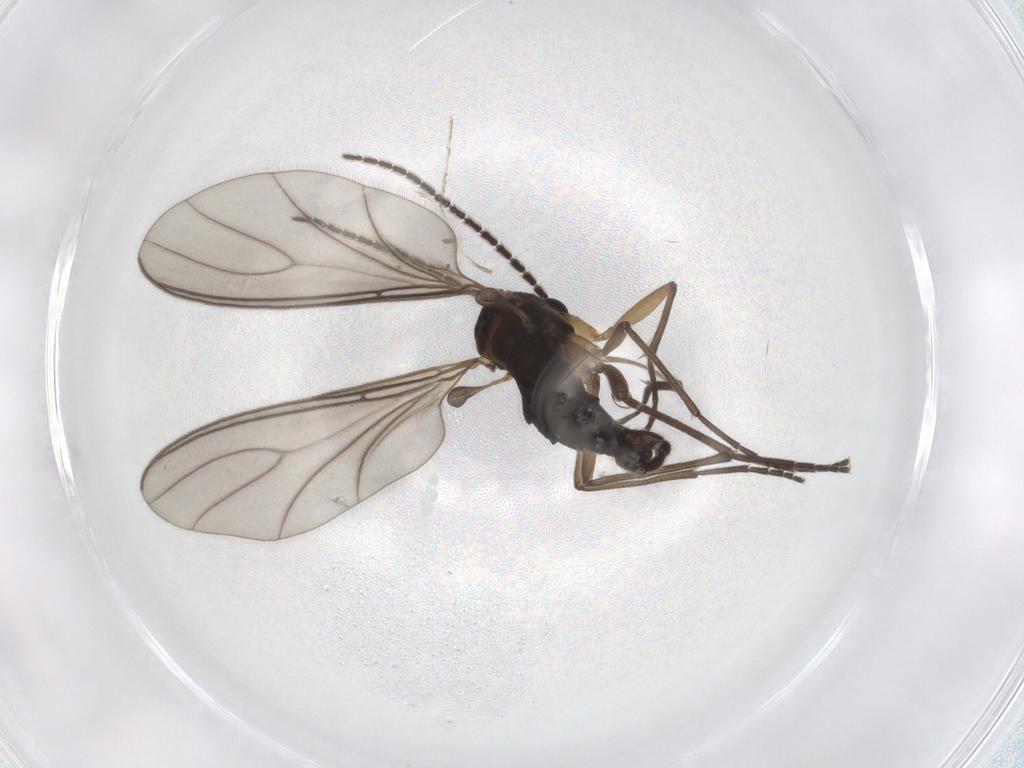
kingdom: Animalia
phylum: Arthropoda
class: Insecta
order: Diptera
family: Sciaridae
